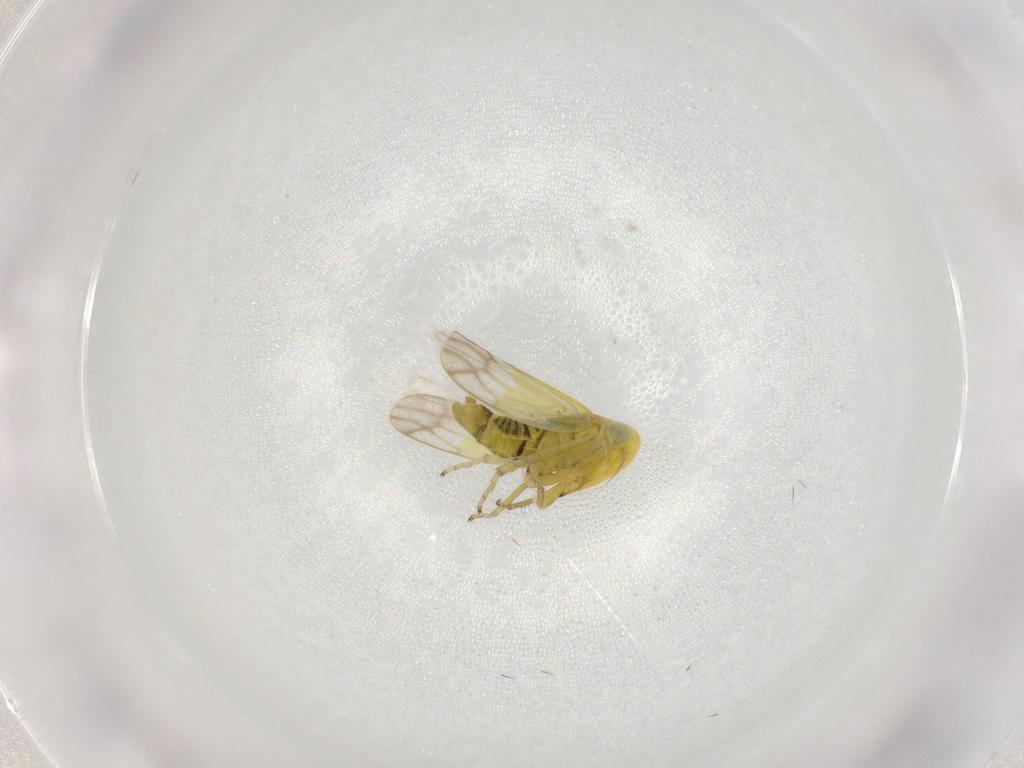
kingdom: Animalia
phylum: Arthropoda
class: Insecta
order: Hemiptera
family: Cicadellidae
